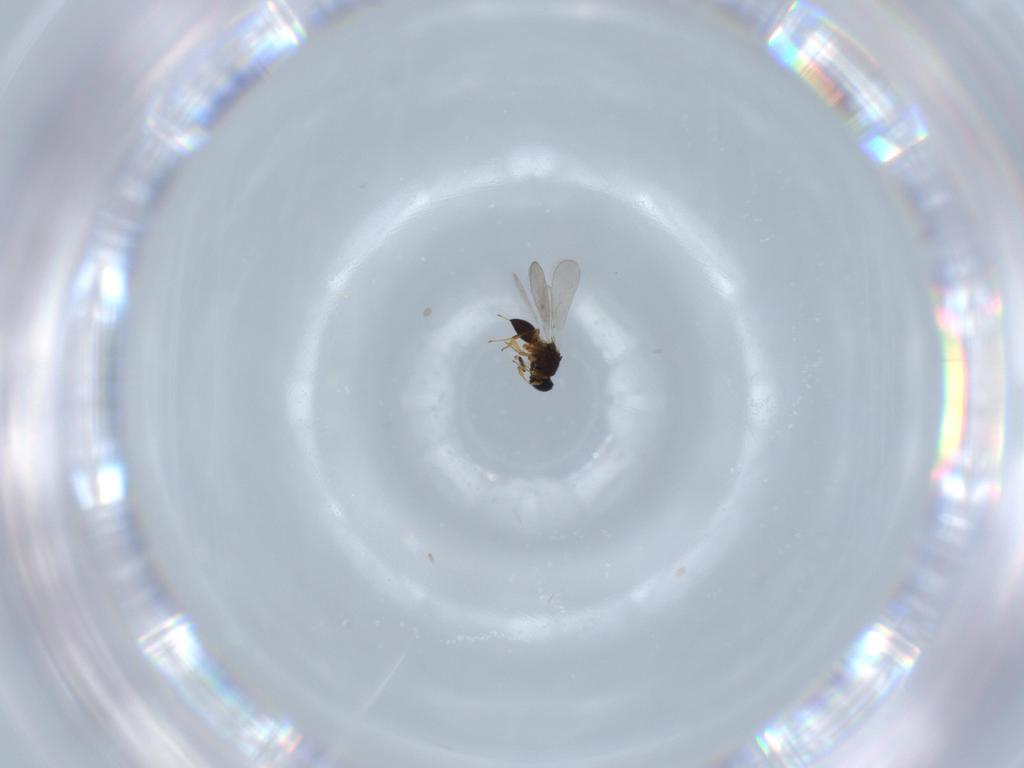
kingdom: Animalia
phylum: Arthropoda
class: Insecta
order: Hymenoptera
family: Platygastridae
